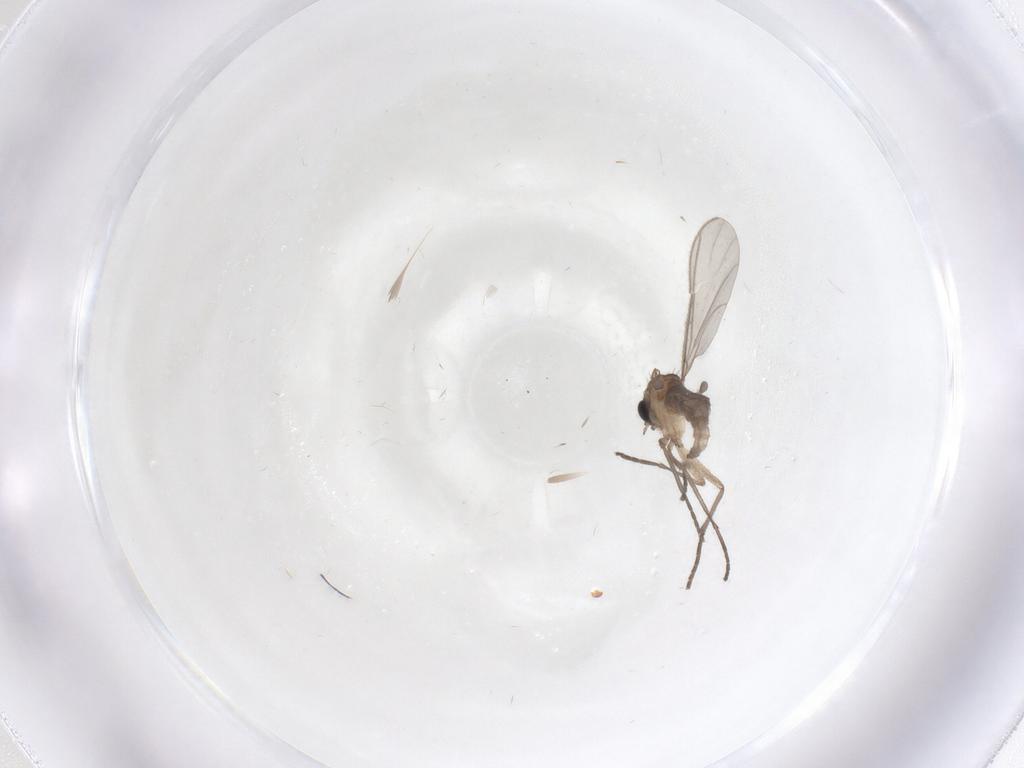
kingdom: Animalia
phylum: Arthropoda
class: Insecta
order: Diptera
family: Sciaridae
